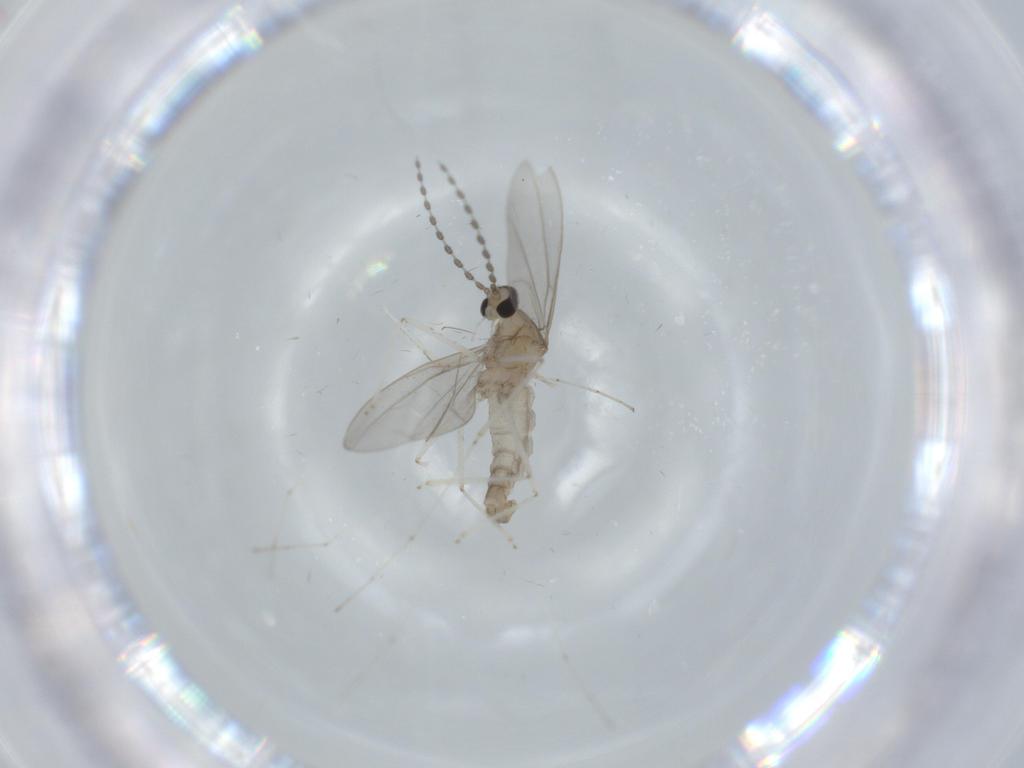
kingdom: Animalia
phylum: Arthropoda
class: Insecta
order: Diptera
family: Cecidomyiidae
